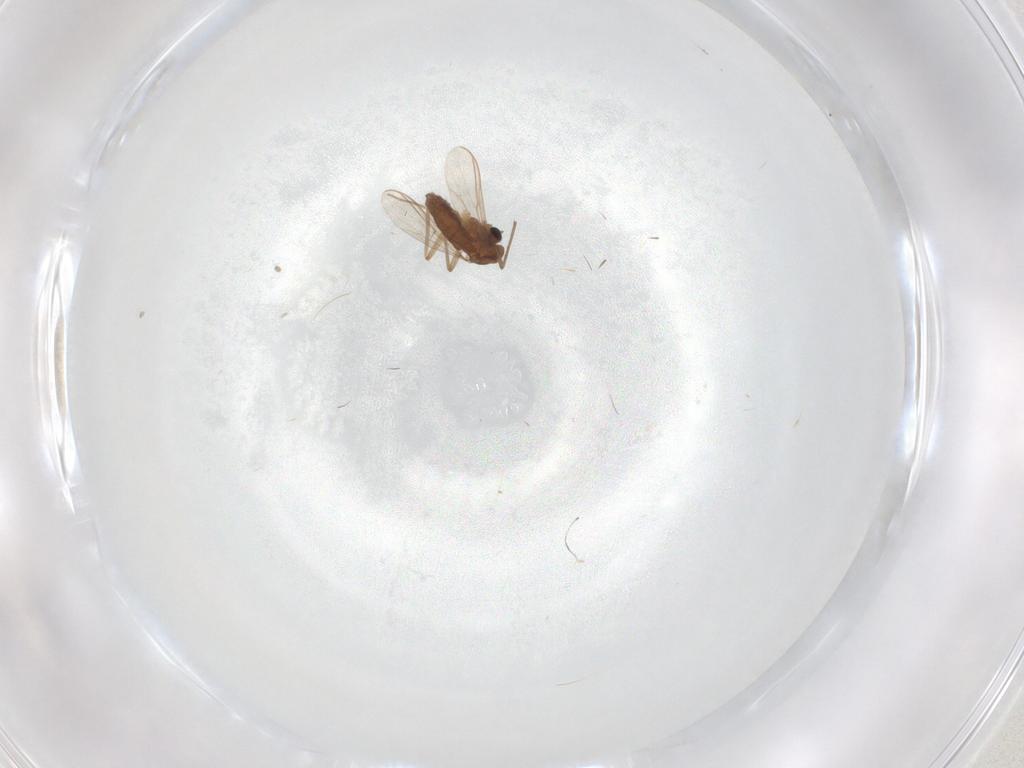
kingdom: Animalia
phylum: Arthropoda
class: Insecta
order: Diptera
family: Chironomidae
